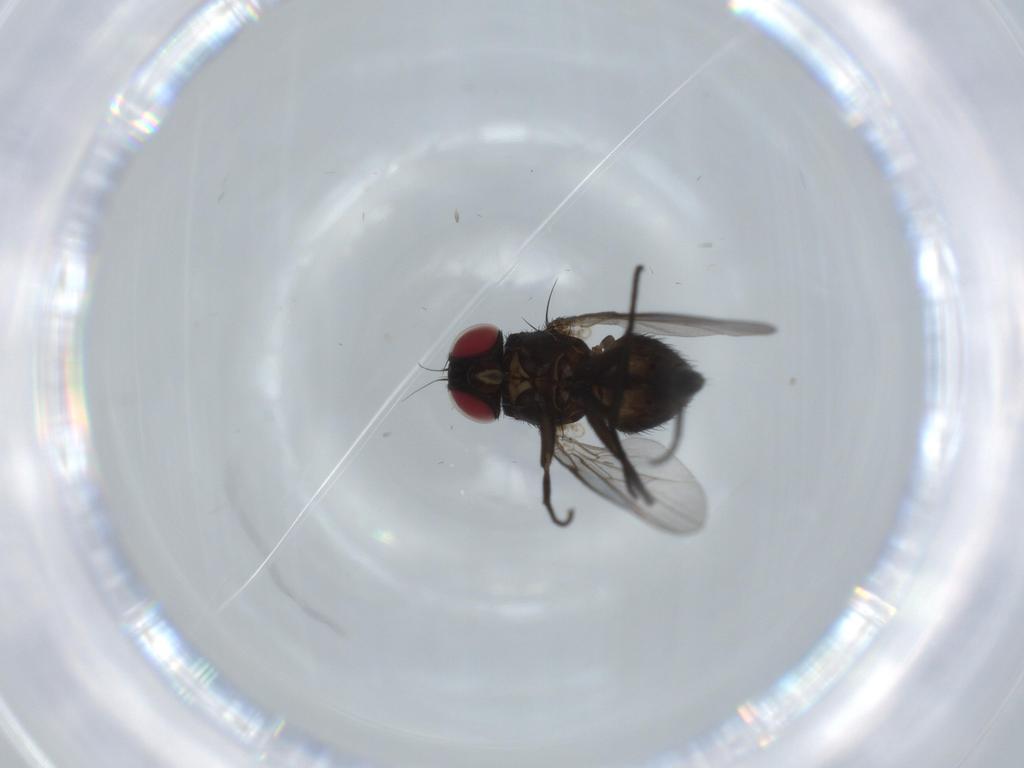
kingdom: Animalia
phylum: Arthropoda
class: Insecta
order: Diptera
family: Agromyzidae
